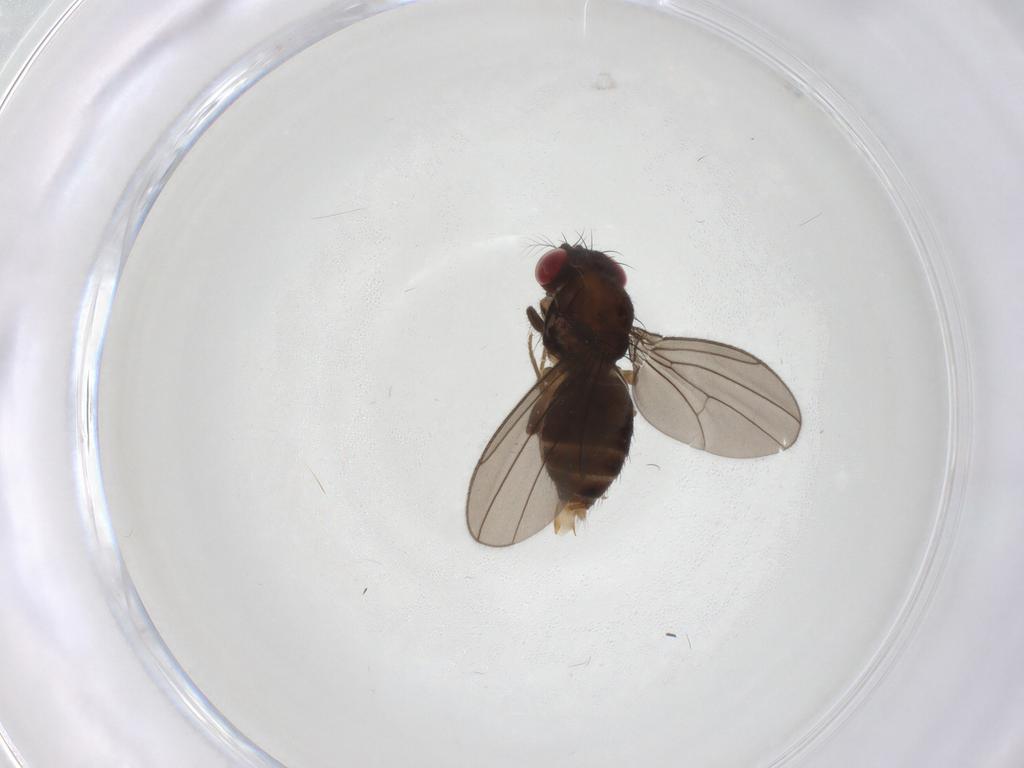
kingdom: Animalia
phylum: Arthropoda
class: Insecta
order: Diptera
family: Drosophilidae
